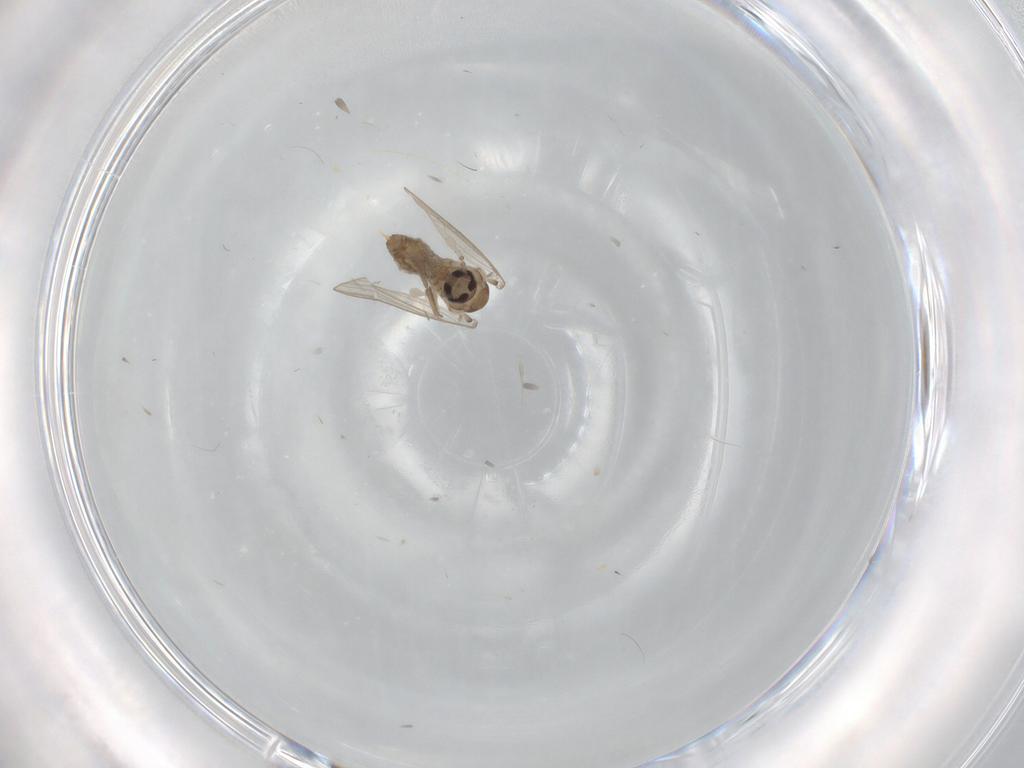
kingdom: Animalia
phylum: Arthropoda
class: Insecta
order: Diptera
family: Psychodidae
